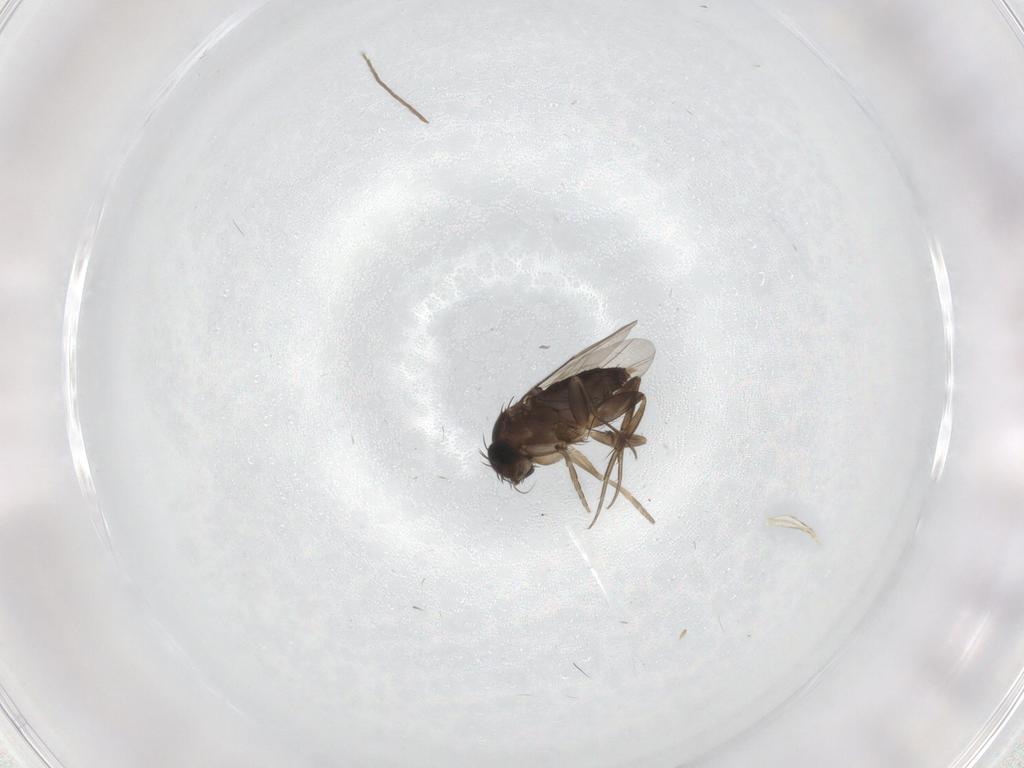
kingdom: Animalia
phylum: Arthropoda
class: Insecta
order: Diptera
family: Phoridae
